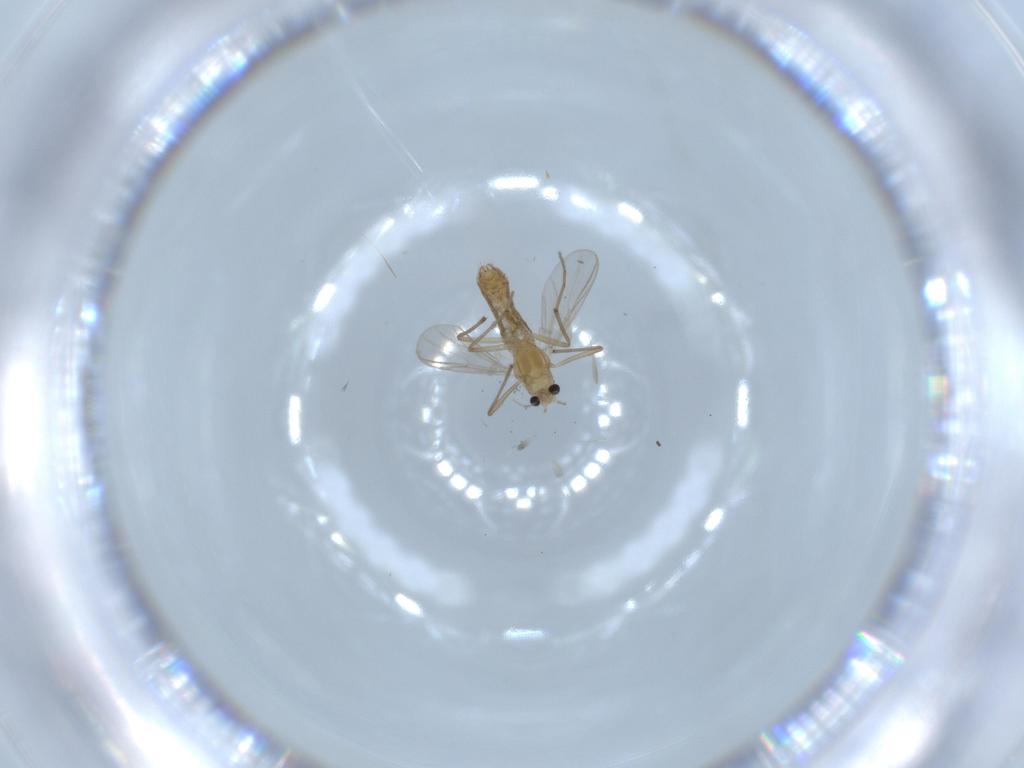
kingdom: Animalia
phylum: Arthropoda
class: Insecta
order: Diptera
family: Chironomidae
